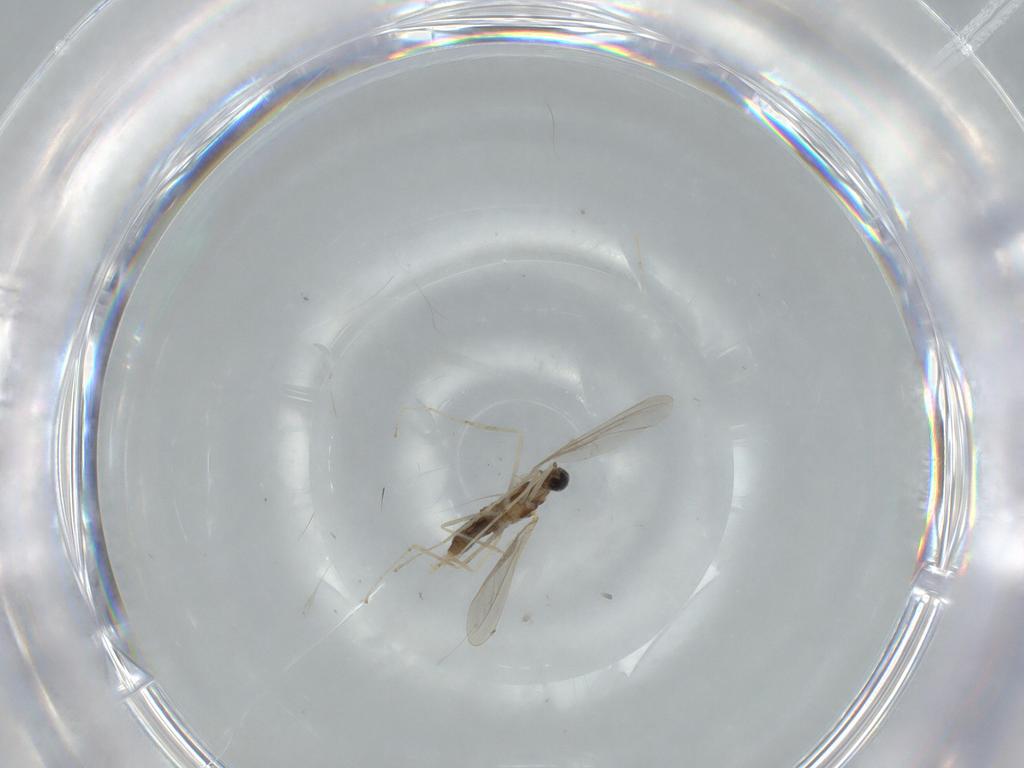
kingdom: Animalia
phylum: Arthropoda
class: Insecta
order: Diptera
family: Cecidomyiidae
